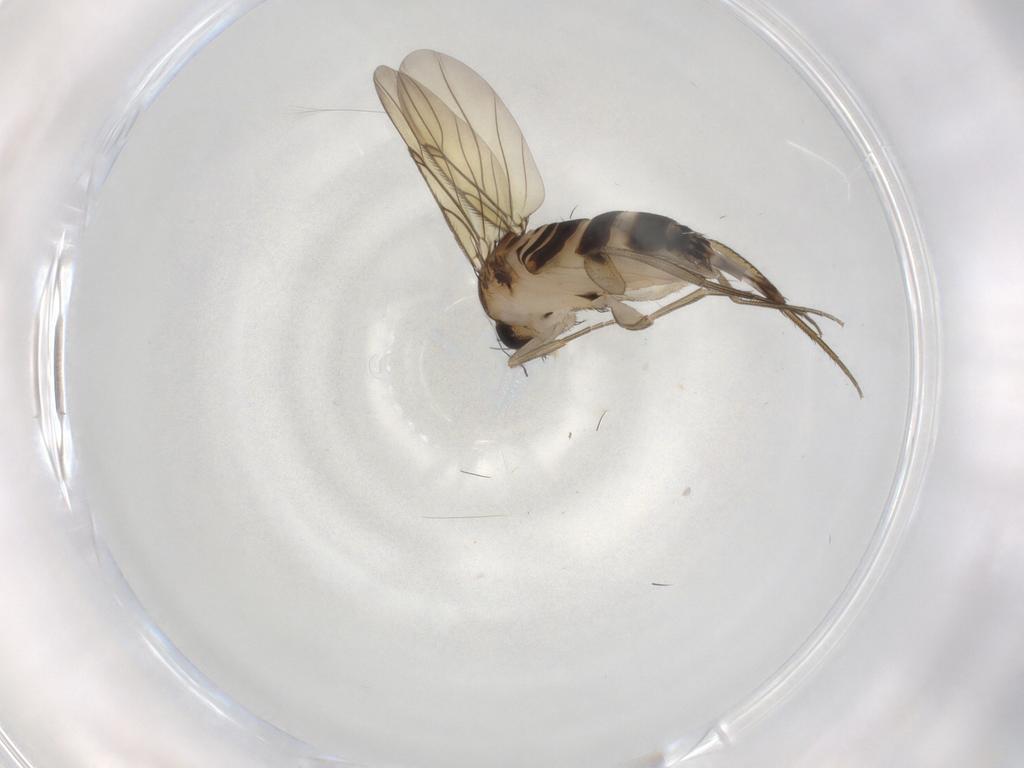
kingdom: Animalia
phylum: Arthropoda
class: Insecta
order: Diptera
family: Phoridae
